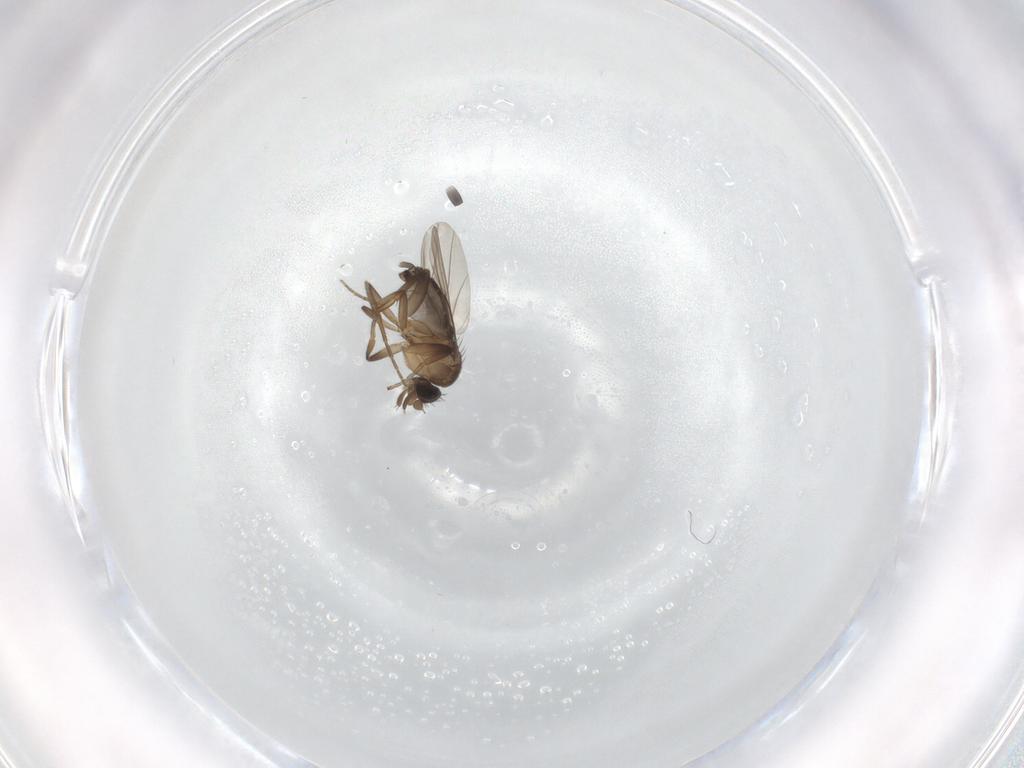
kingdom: Animalia
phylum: Arthropoda
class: Insecta
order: Diptera
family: Phoridae
